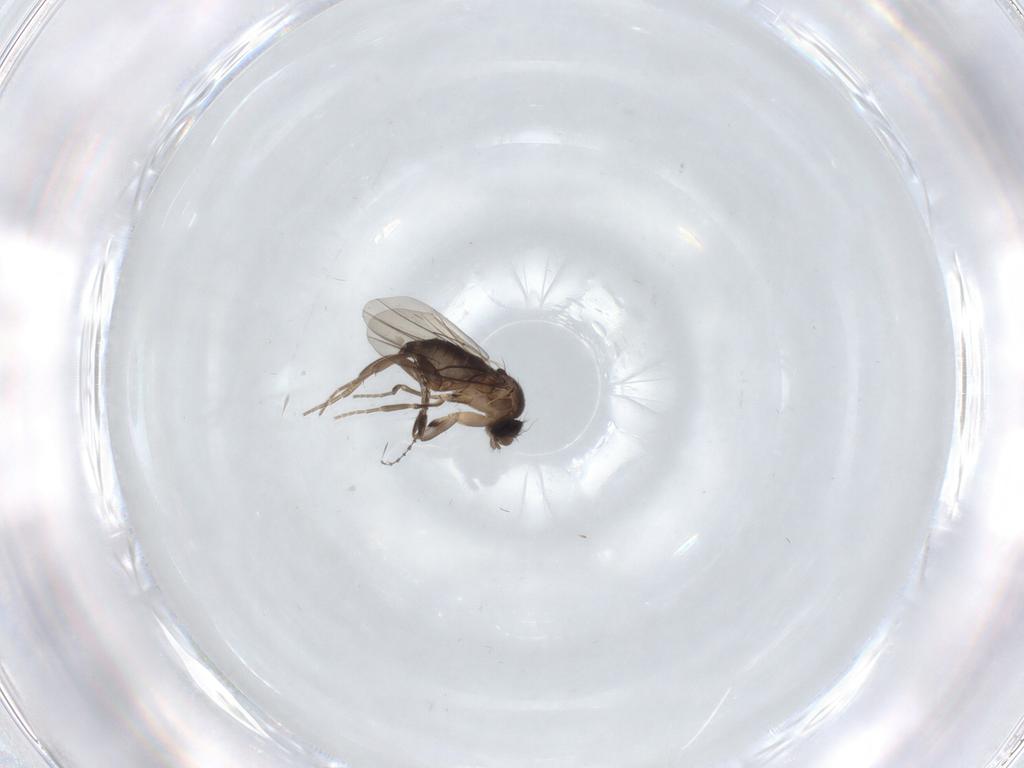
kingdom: Animalia
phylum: Arthropoda
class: Insecta
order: Diptera
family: Phoridae
